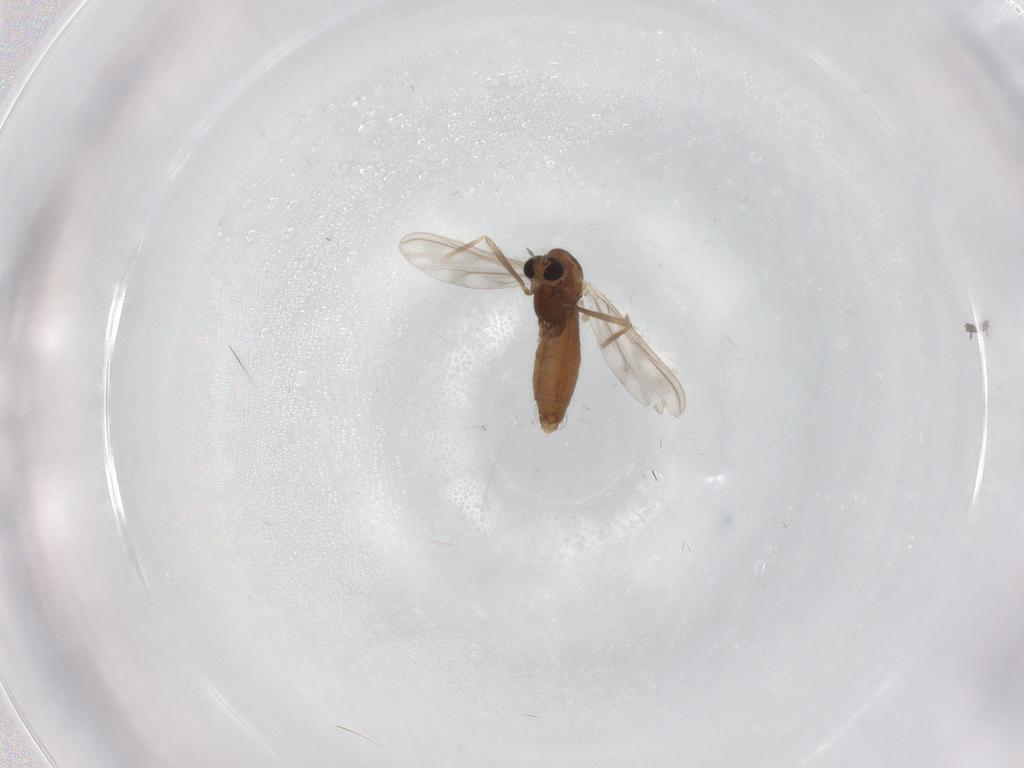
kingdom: Animalia
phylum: Arthropoda
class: Insecta
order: Diptera
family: Chironomidae
